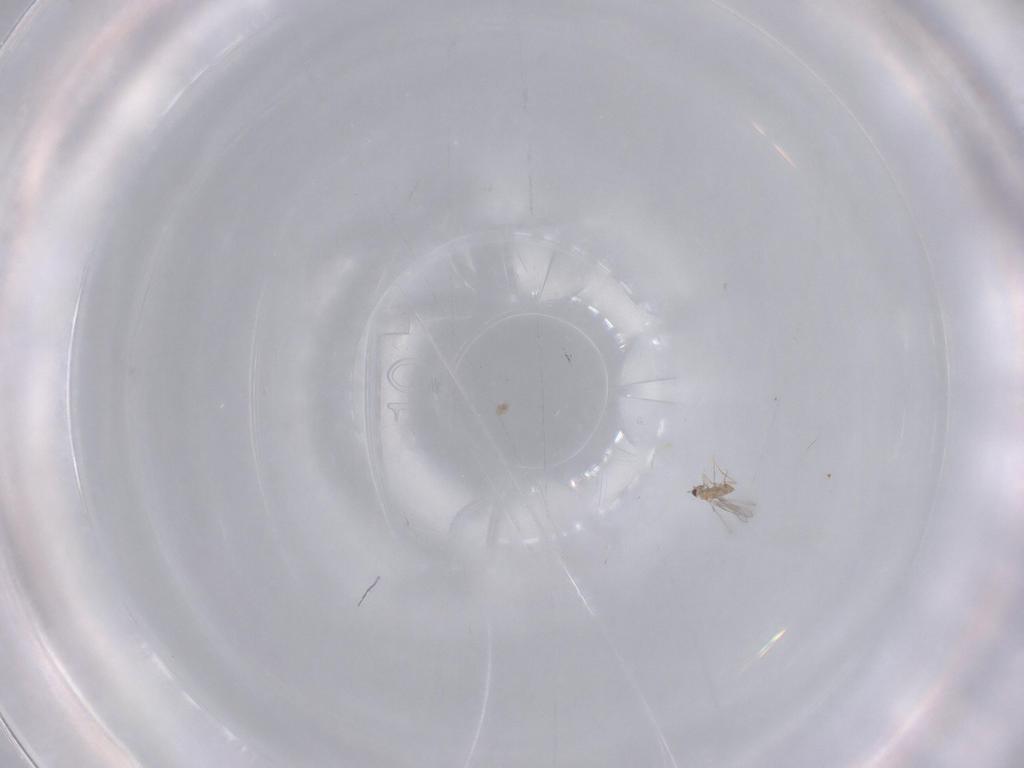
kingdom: Animalia
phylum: Arthropoda
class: Insecta
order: Hymenoptera
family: Mymaridae
